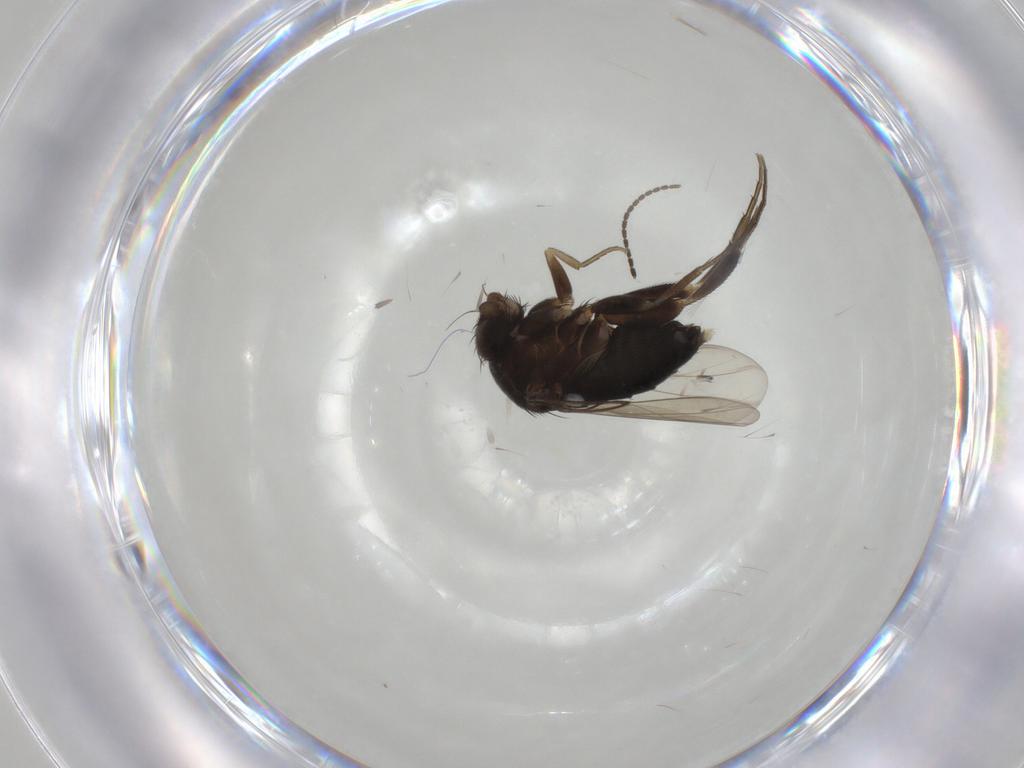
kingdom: Animalia
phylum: Arthropoda
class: Insecta
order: Diptera
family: Phoridae
